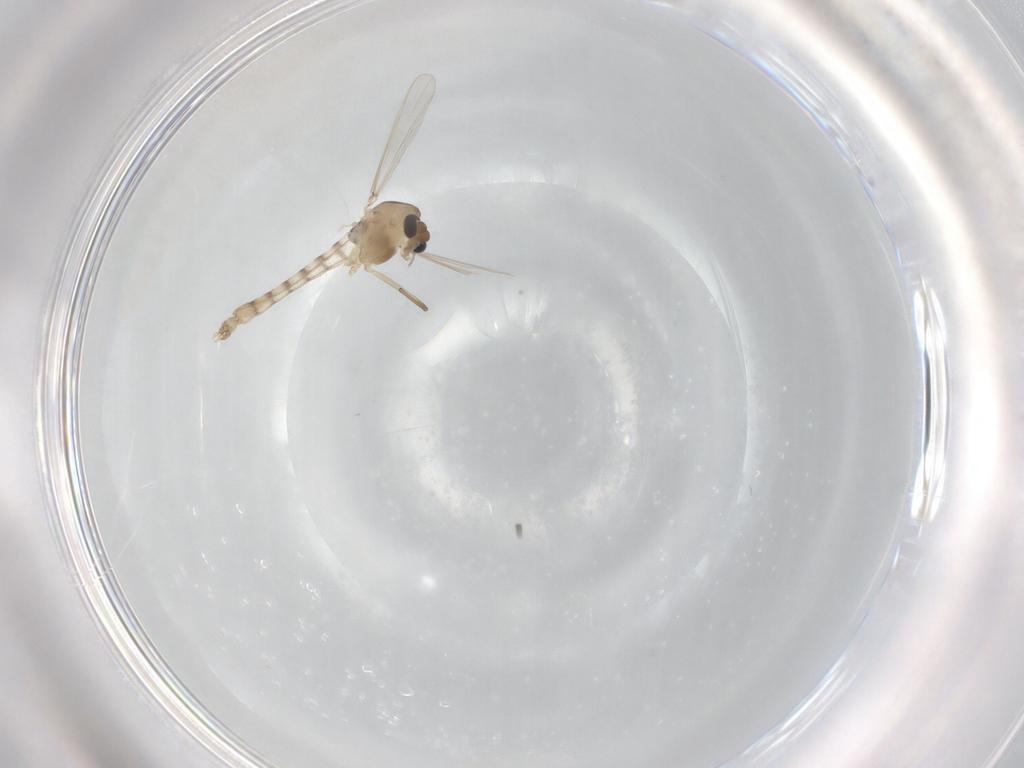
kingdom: Animalia
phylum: Arthropoda
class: Insecta
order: Diptera
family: Chironomidae
